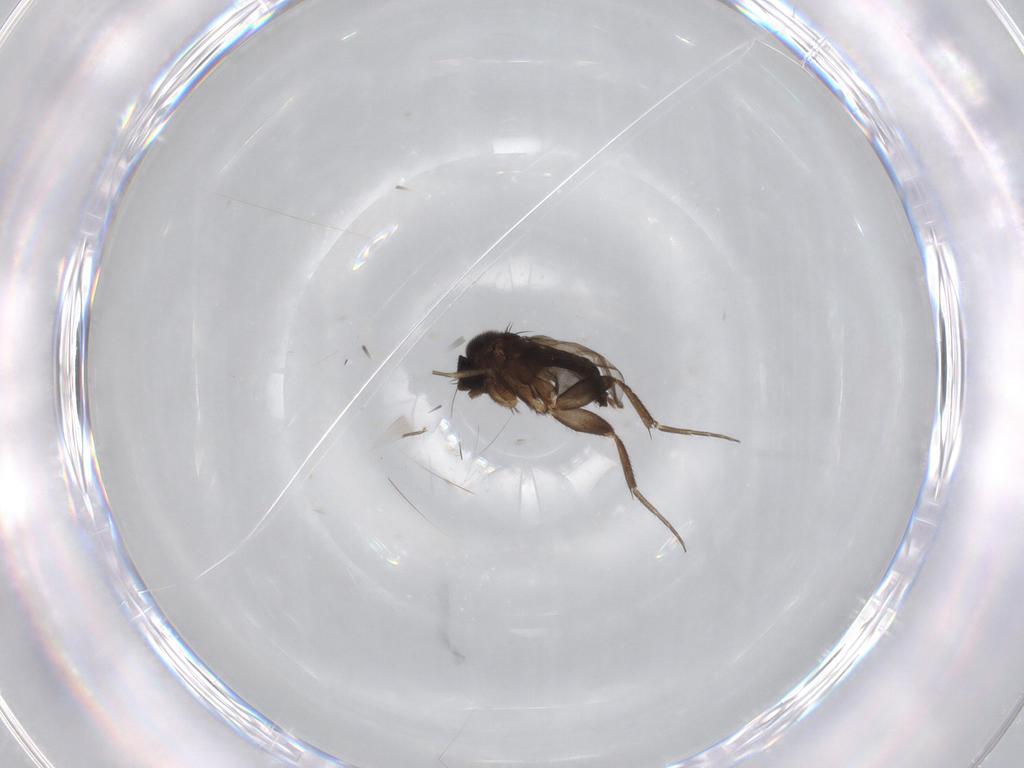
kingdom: Animalia
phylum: Arthropoda
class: Insecta
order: Diptera
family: Phoridae
